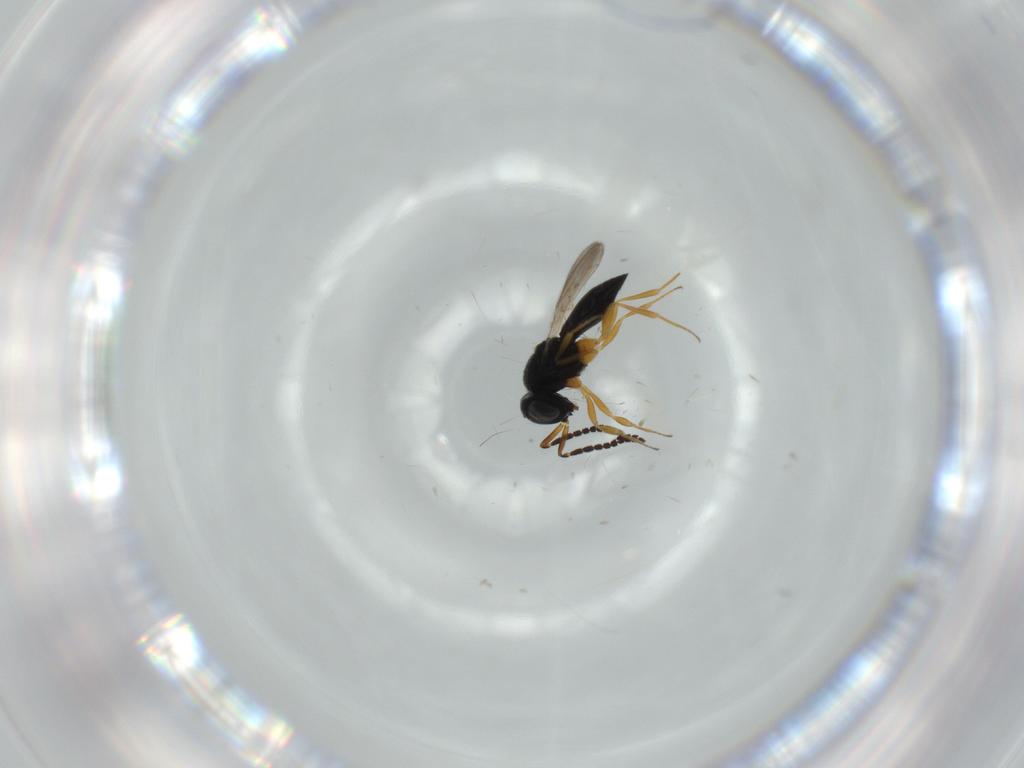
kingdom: Animalia
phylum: Arthropoda
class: Insecta
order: Hymenoptera
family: Scelionidae
